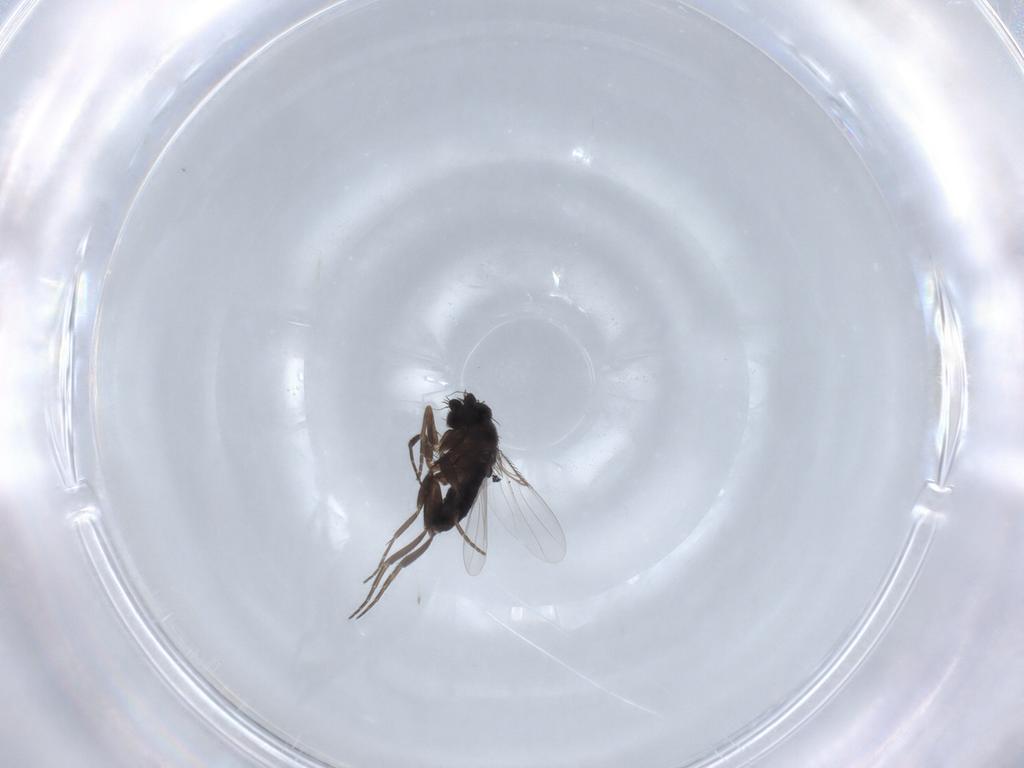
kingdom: Animalia
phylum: Arthropoda
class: Insecta
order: Diptera
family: Phoridae
